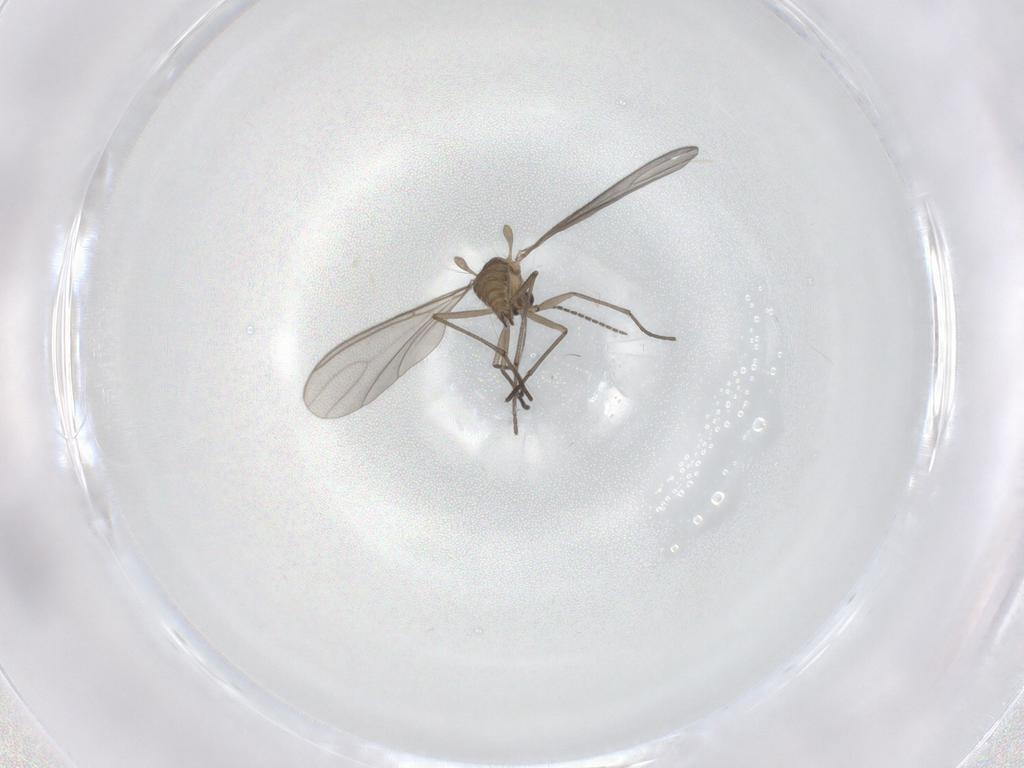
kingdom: Animalia
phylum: Arthropoda
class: Insecta
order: Diptera
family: Sciaridae
